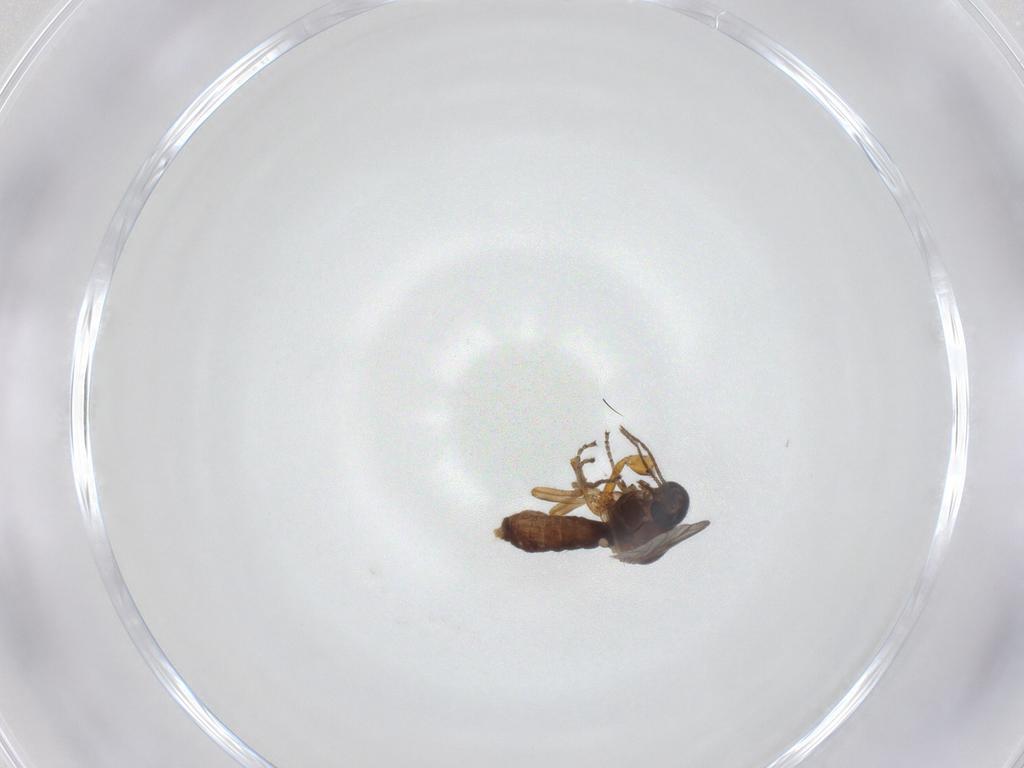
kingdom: Animalia
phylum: Arthropoda
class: Insecta
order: Diptera
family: Ceratopogonidae
